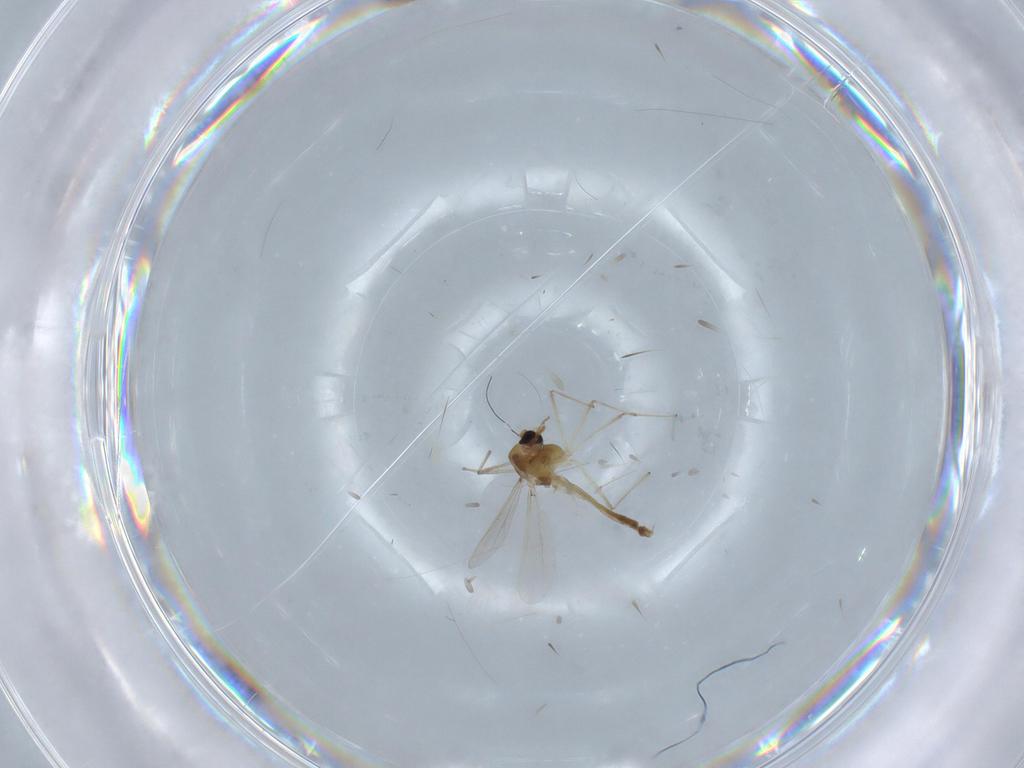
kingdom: Animalia
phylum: Arthropoda
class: Insecta
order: Diptera
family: Chironomidae
